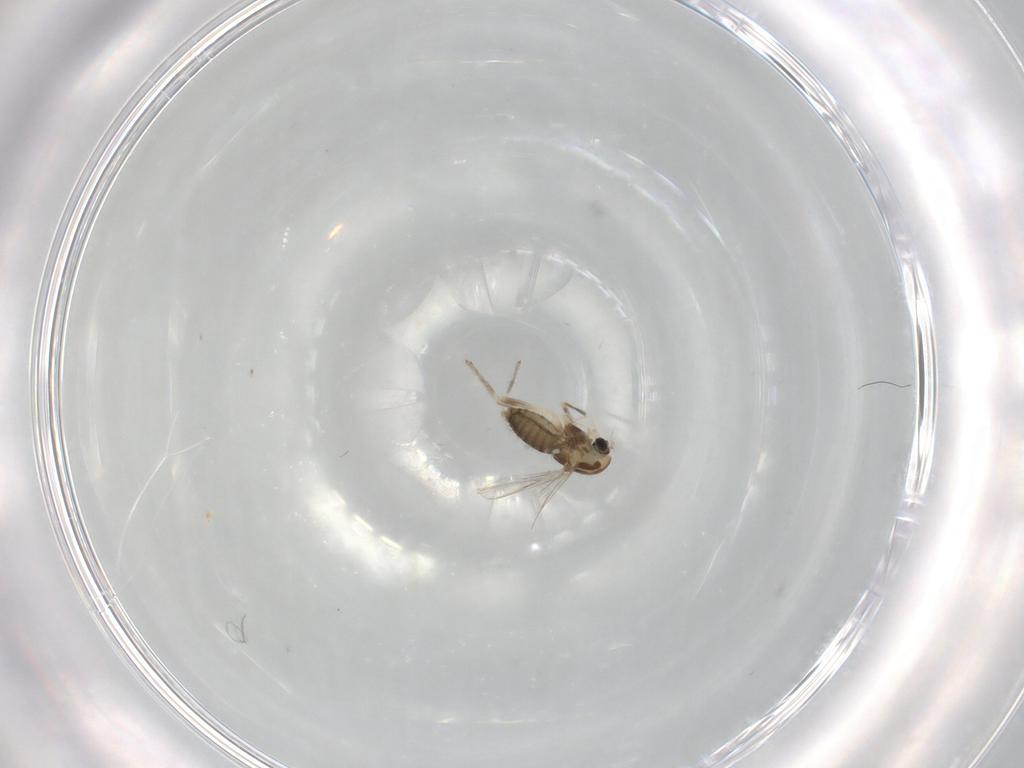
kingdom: Animalia
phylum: Arthropoda
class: Insecta
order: Diptera
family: Chironomidae
